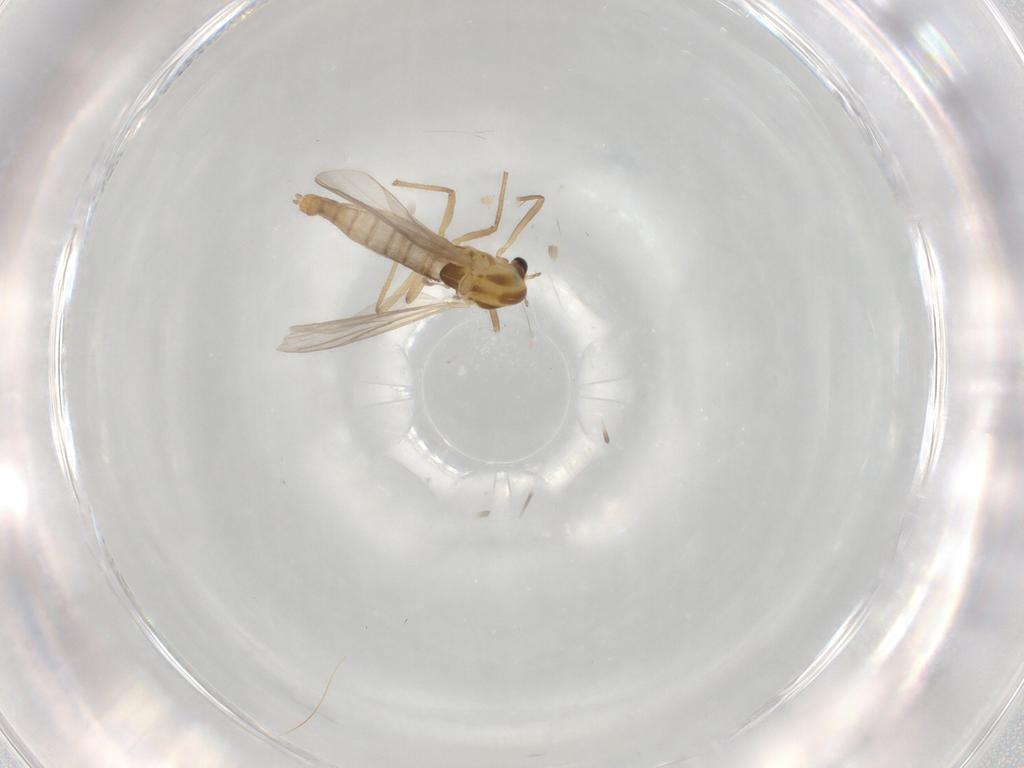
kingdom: Animalia
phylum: Arthropoda
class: Insecta
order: Diptera
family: Chironomidae
